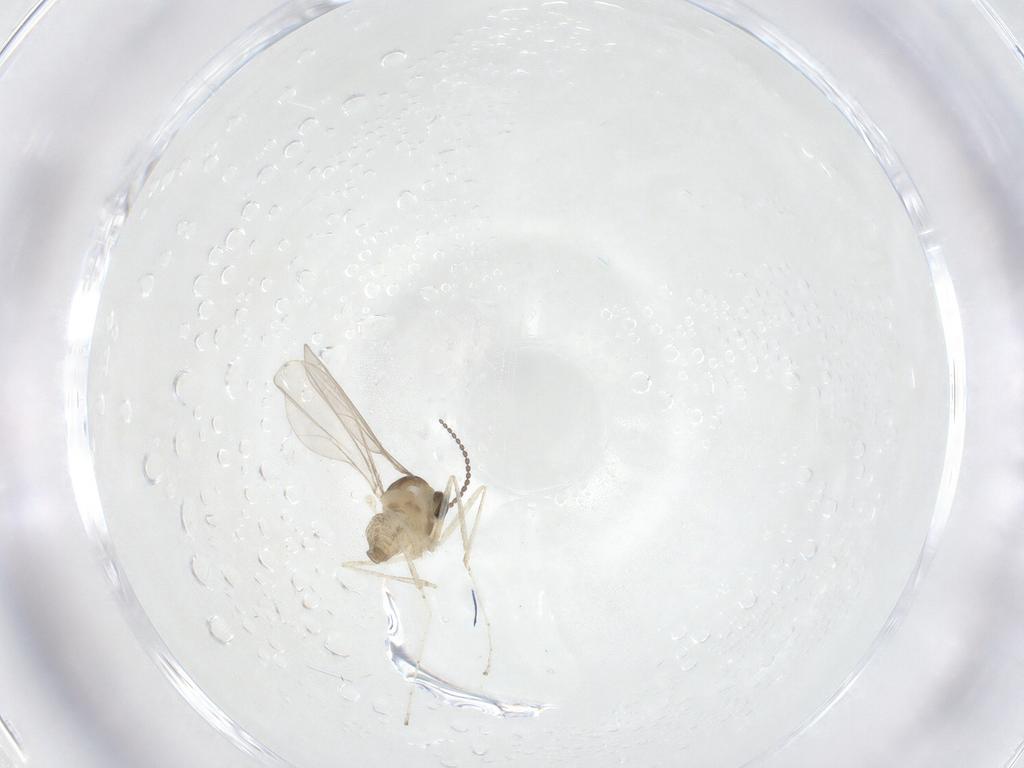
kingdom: Animalia
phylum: Arthropoda
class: Insecta
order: Diptera
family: Cecidomyiidae
